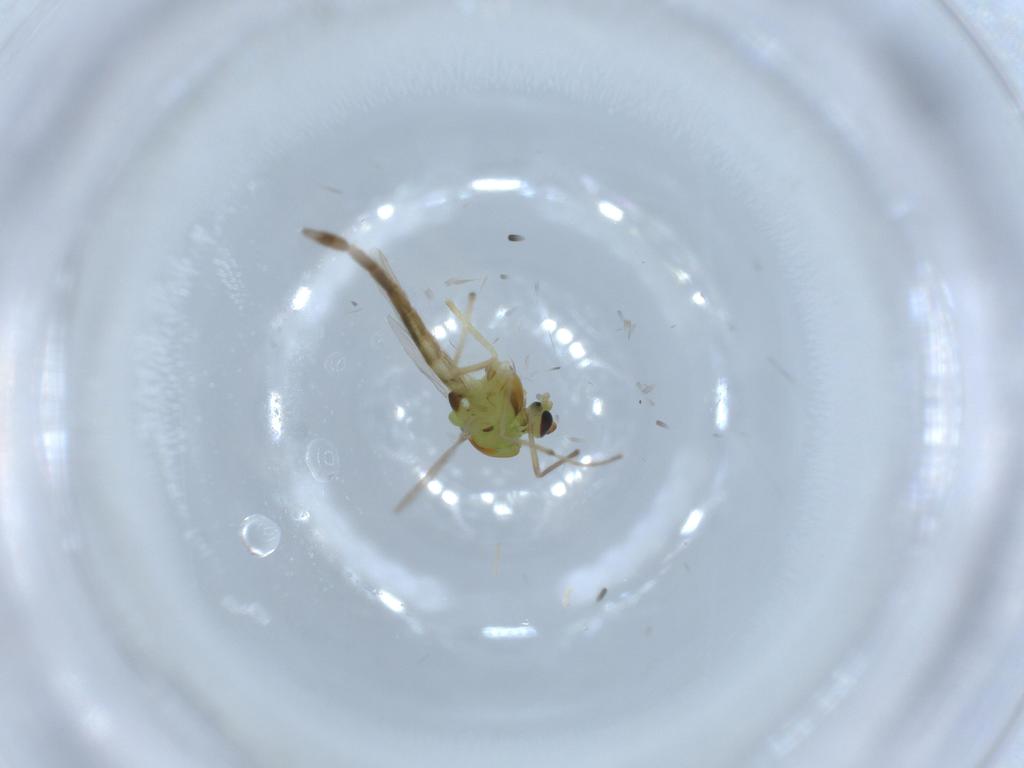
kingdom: Animalia
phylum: Arthropoda
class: Insecta
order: Diptera
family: Chironomidae
